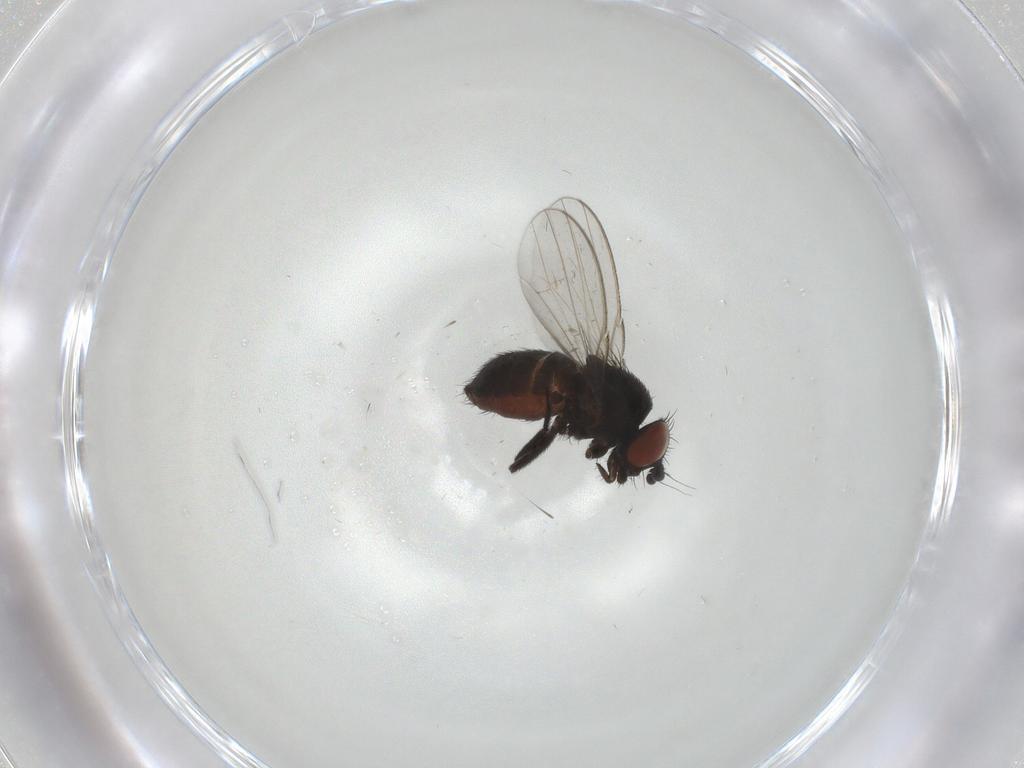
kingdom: Animalia
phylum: Arthropoda
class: Insecta
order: Diptera
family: Milichiidae
